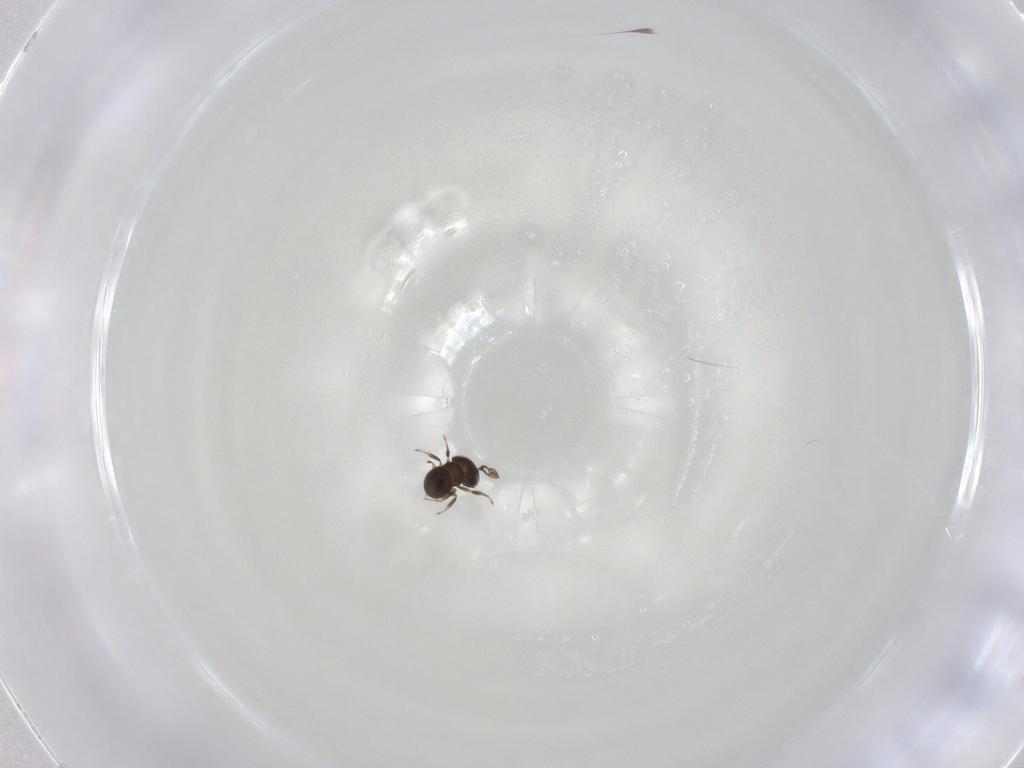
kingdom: Animalia
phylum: Arthropoda
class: Insecta
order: Hymenoptera
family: Scelionidae
